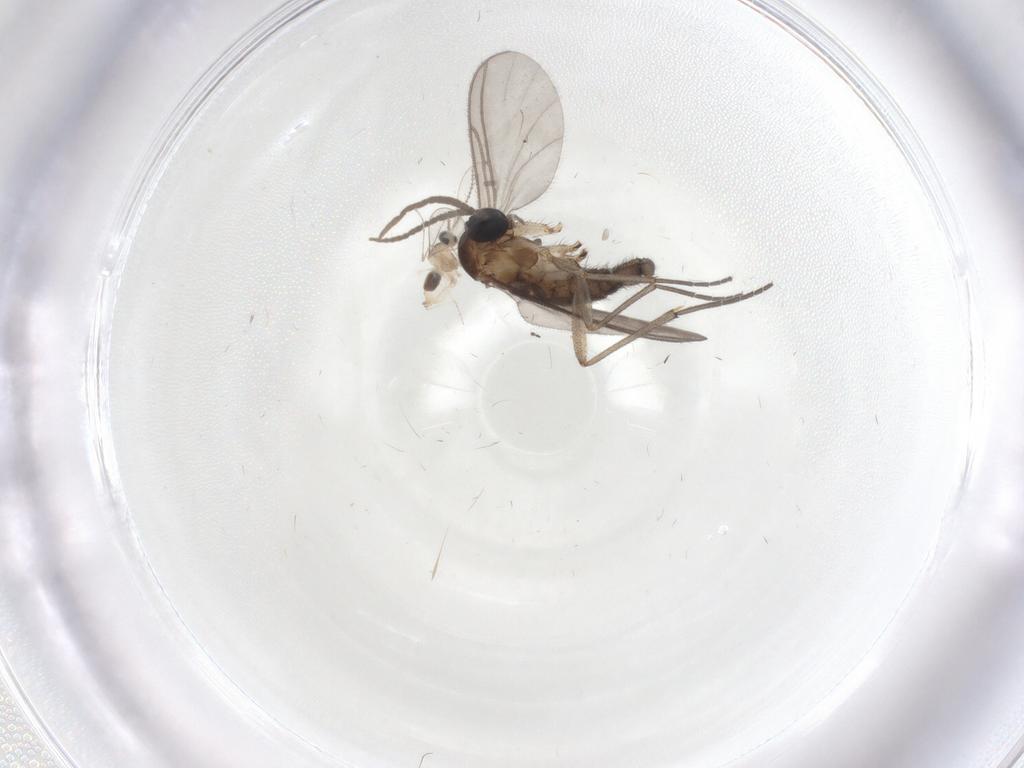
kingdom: Animalia
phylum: Arthropoda
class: Insecta
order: Diptera
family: Cecidomyiidae
